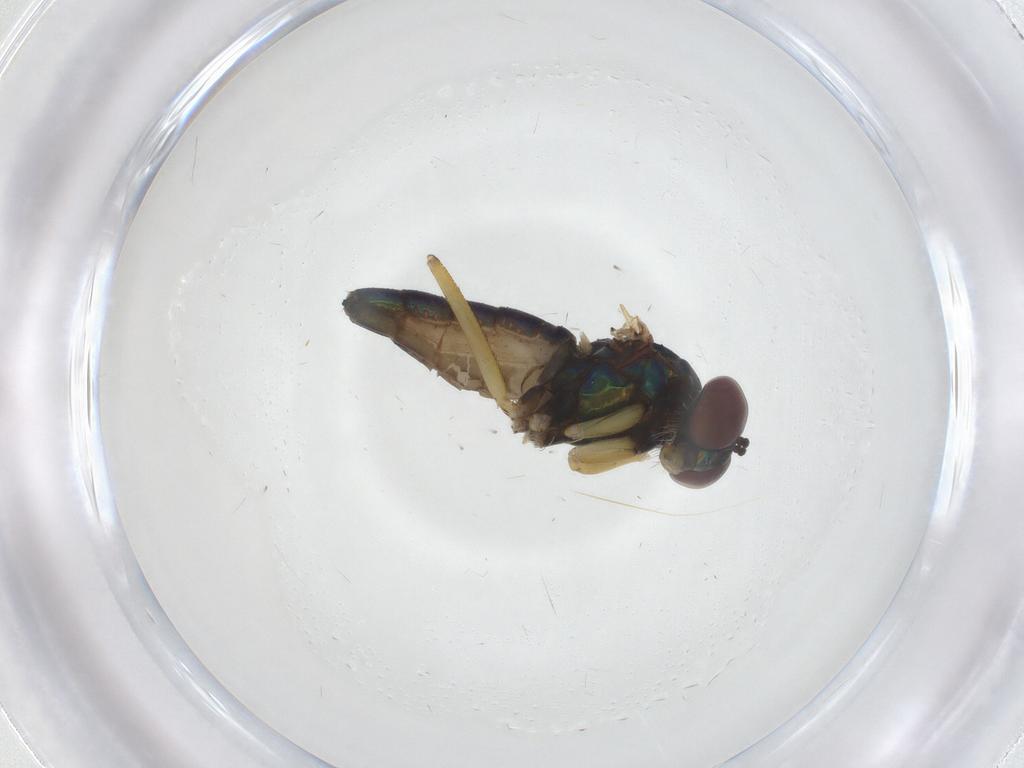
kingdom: Animalia
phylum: Arthropoda
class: Insecta
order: Diptera
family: Dolichopodidae
